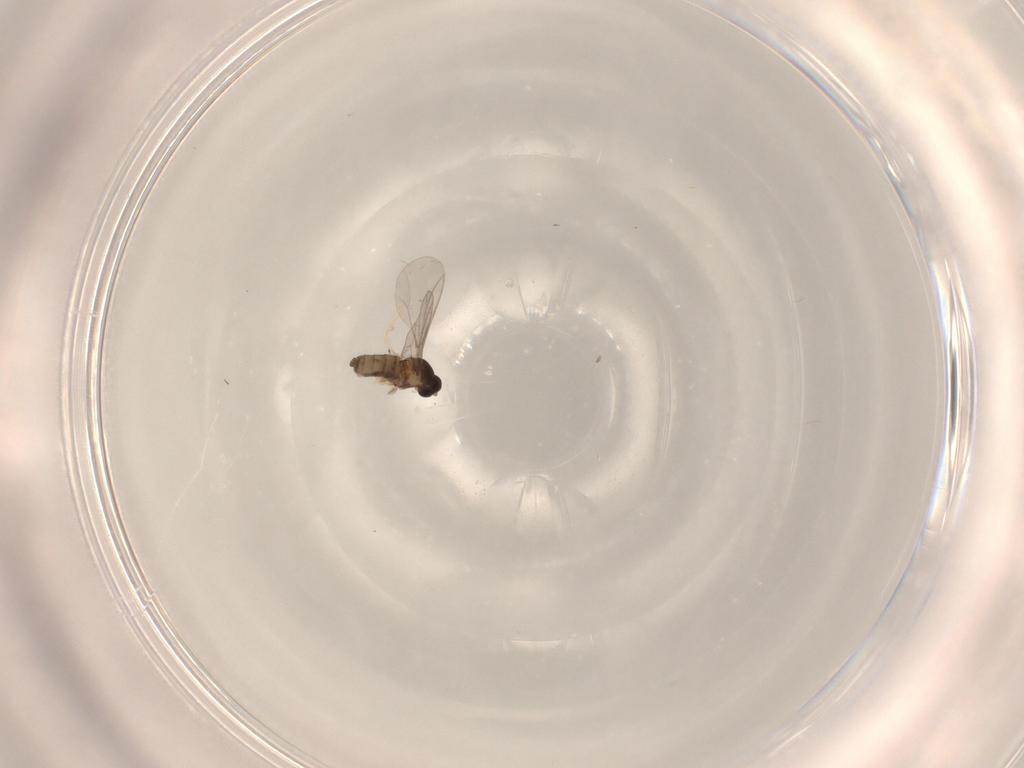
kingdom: Animalia
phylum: Arthropoda
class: Insecta
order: Diptera
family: Cecidomyiidae
